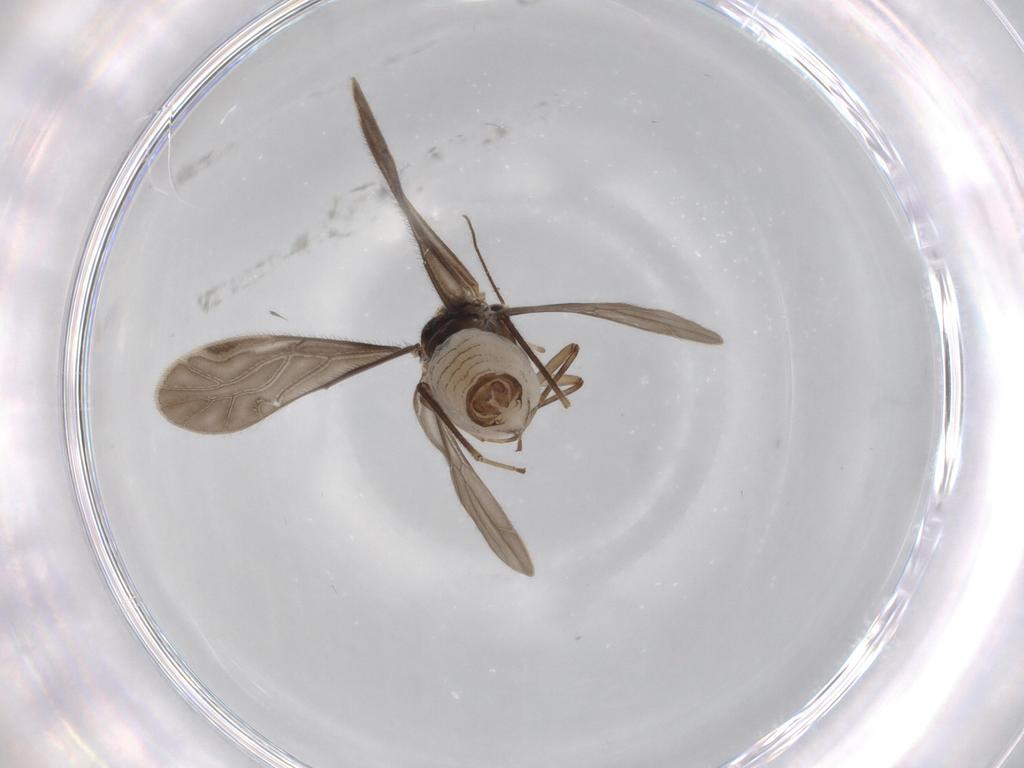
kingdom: Animalia
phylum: Arthropoda
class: Insecta
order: Psocodea
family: Caeciliusidae
